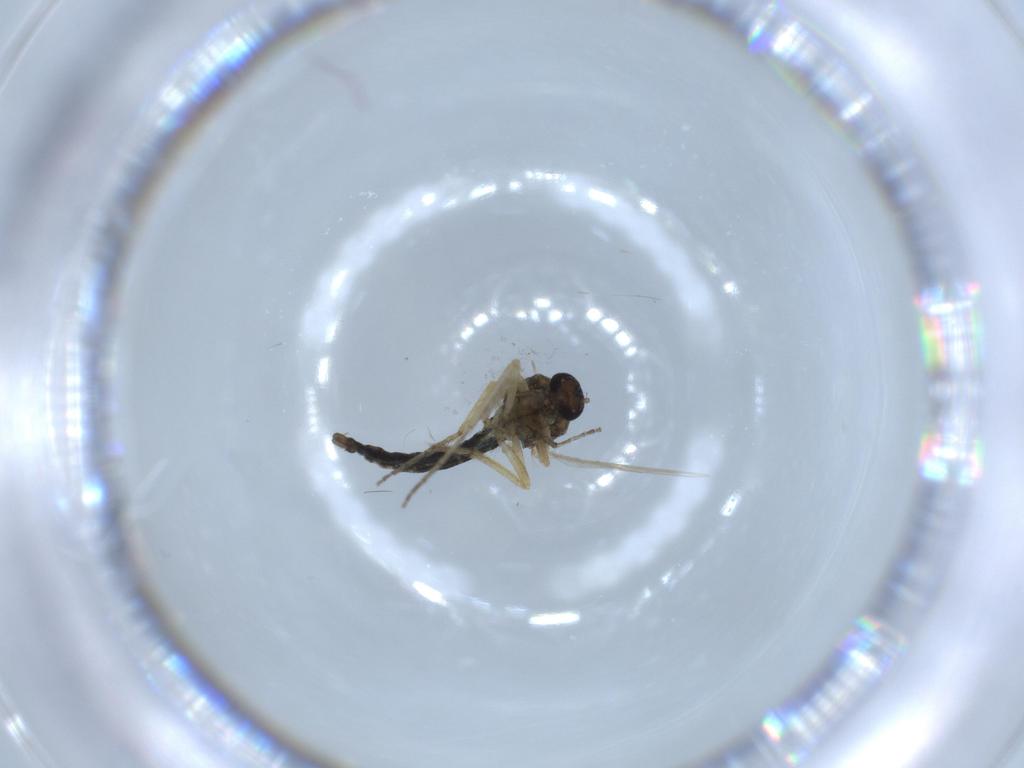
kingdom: Animalia
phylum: Arthropoda
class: Insecta
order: Diptera
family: Ceratopogonidae
